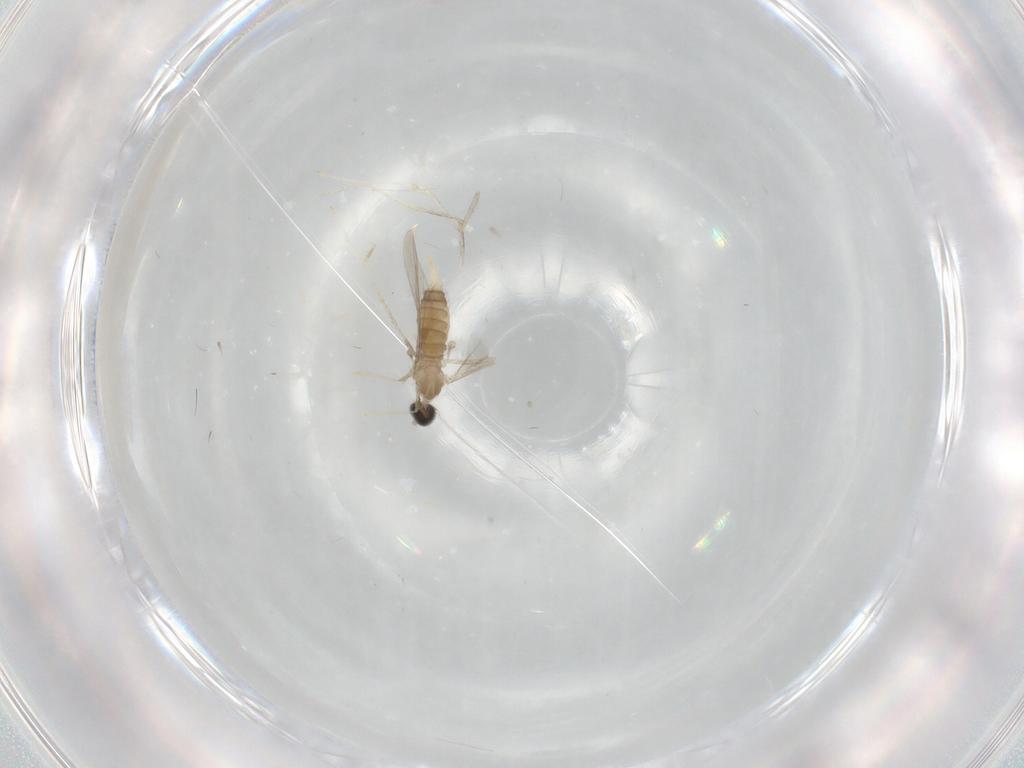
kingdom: Animalia
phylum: Arthropoda
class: Insecta
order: Diptera
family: Cecidomyiidae
